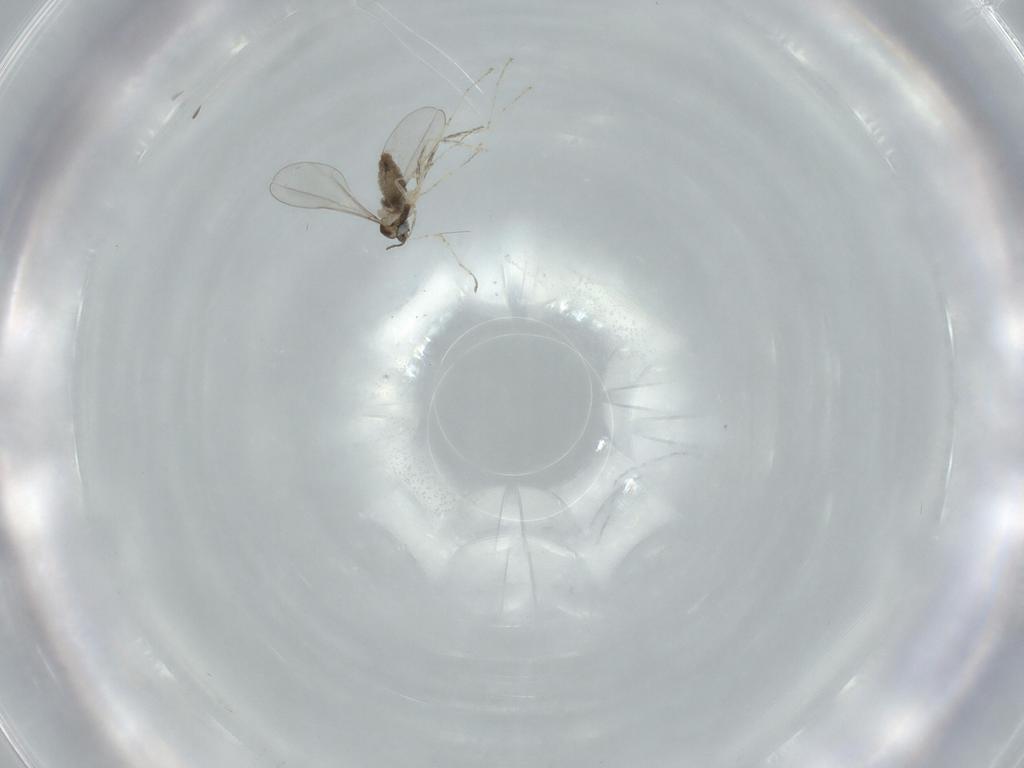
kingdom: Animalia
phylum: Arthropoda
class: Insecta
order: Diptera
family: Cecidomyiidae
